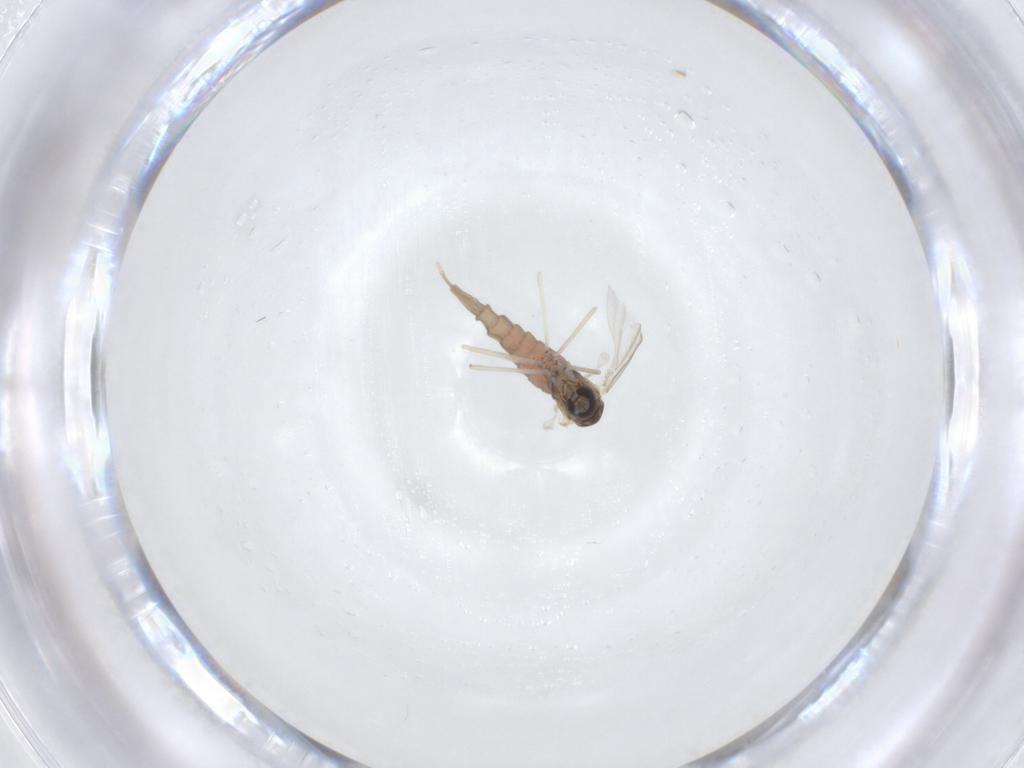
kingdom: Animalia
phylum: Arthropoda
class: Insecta
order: Diptera
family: Cecidomyiidae
